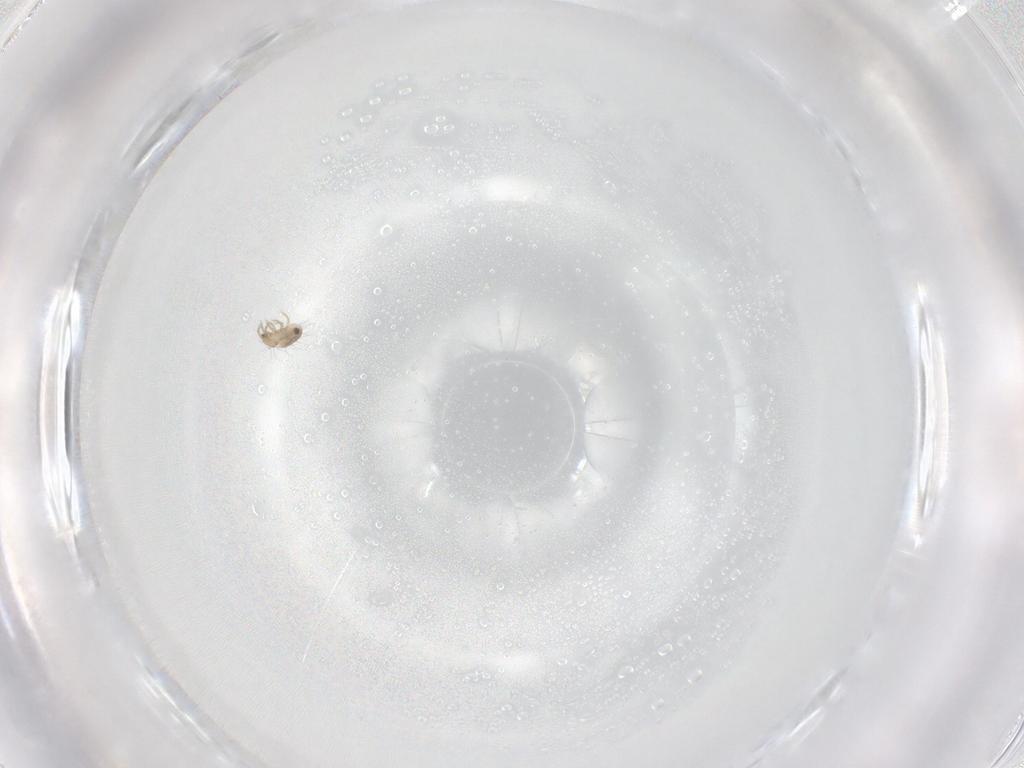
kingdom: Animalia
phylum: Arthropoda
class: Arachnida
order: Sarcoptiformes
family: Humerobatidae
